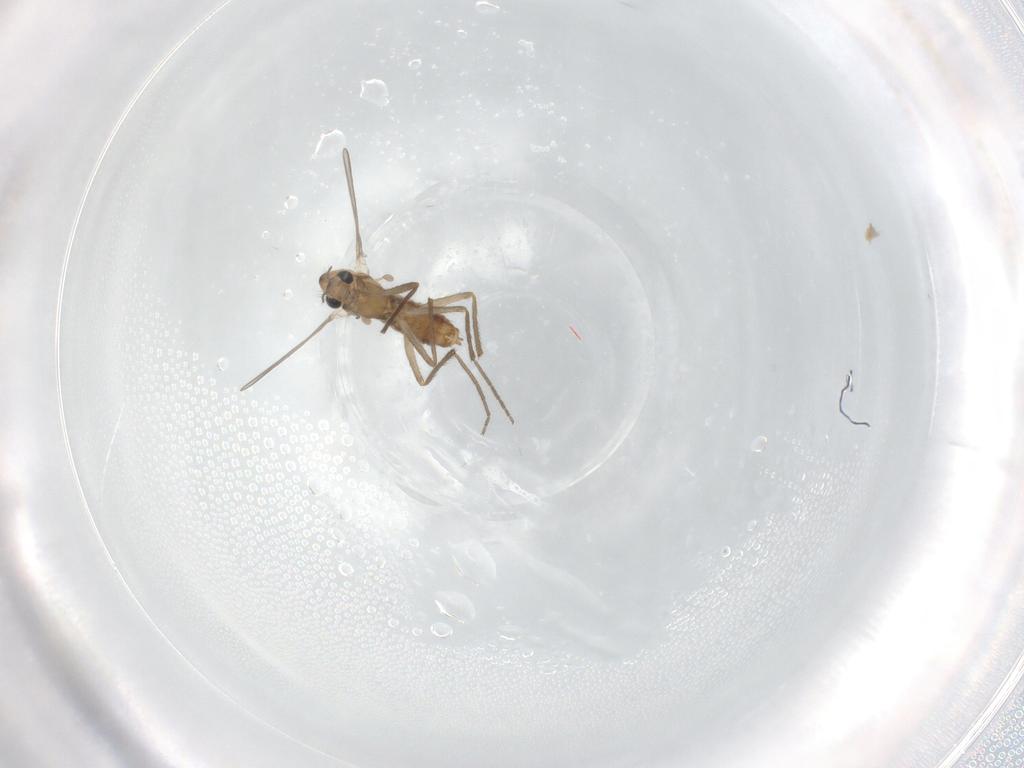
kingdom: Animalia
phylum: Arthropoda
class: Insecta
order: Diptera
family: Chironomidae
